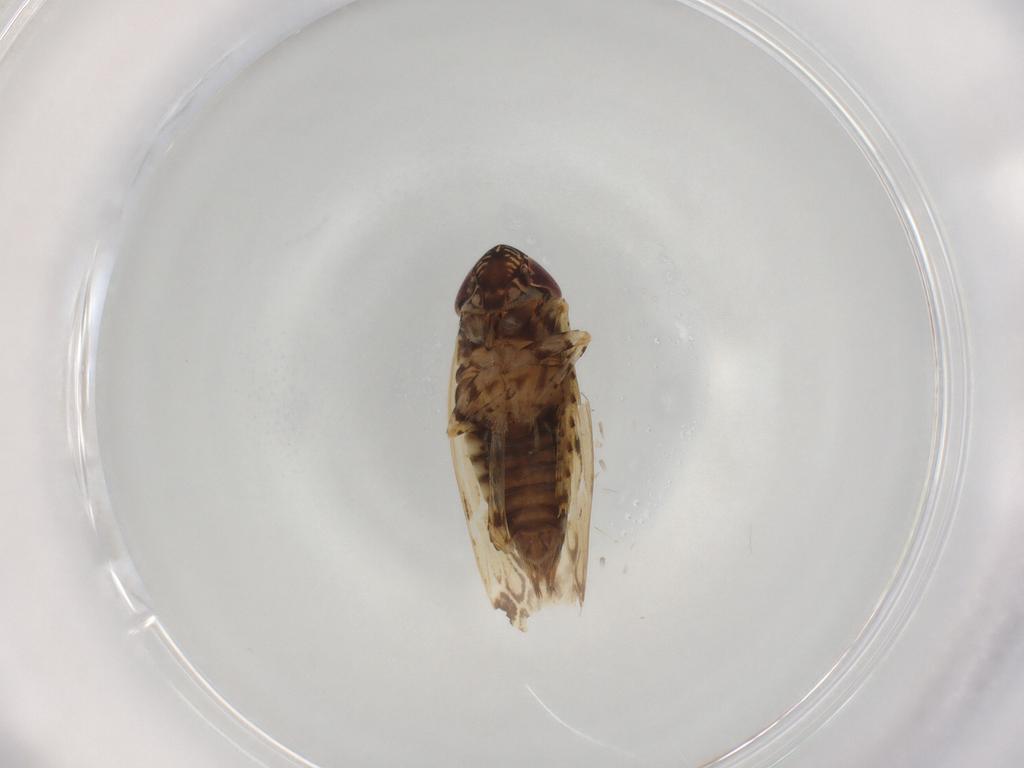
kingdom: Animalia
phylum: Arthropoda
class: Insecta
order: Hemiptera
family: Cicadellidae
